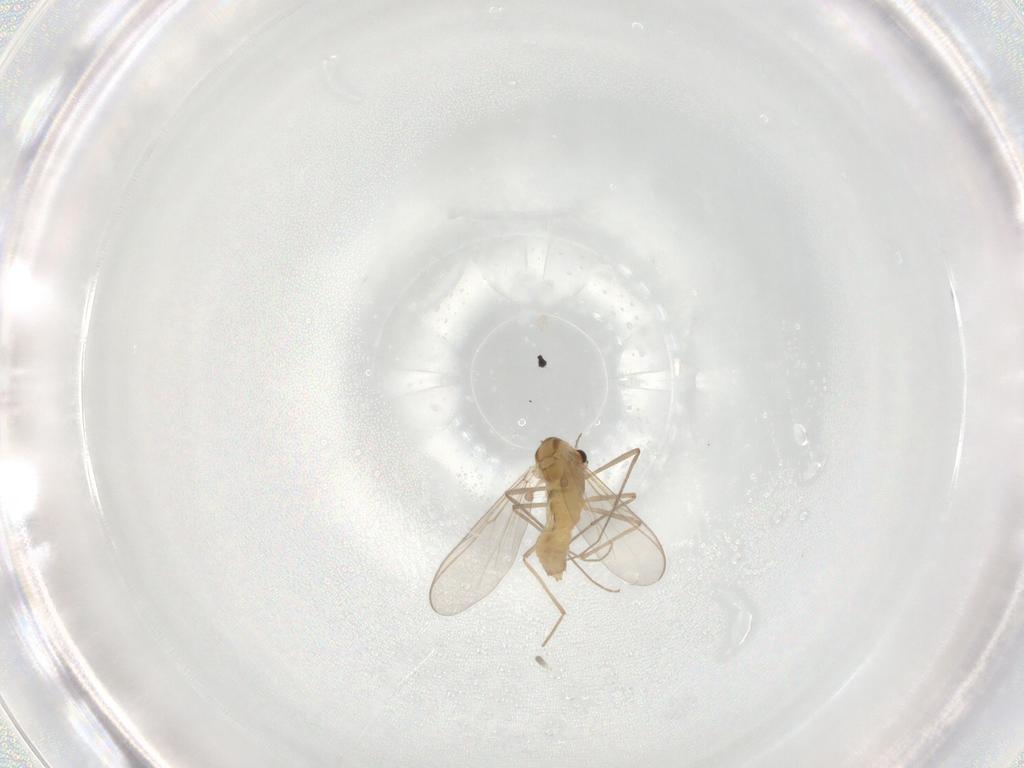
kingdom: Animalia
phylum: Arthropoda
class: Insecta
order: Diptera
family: Chironomidae
